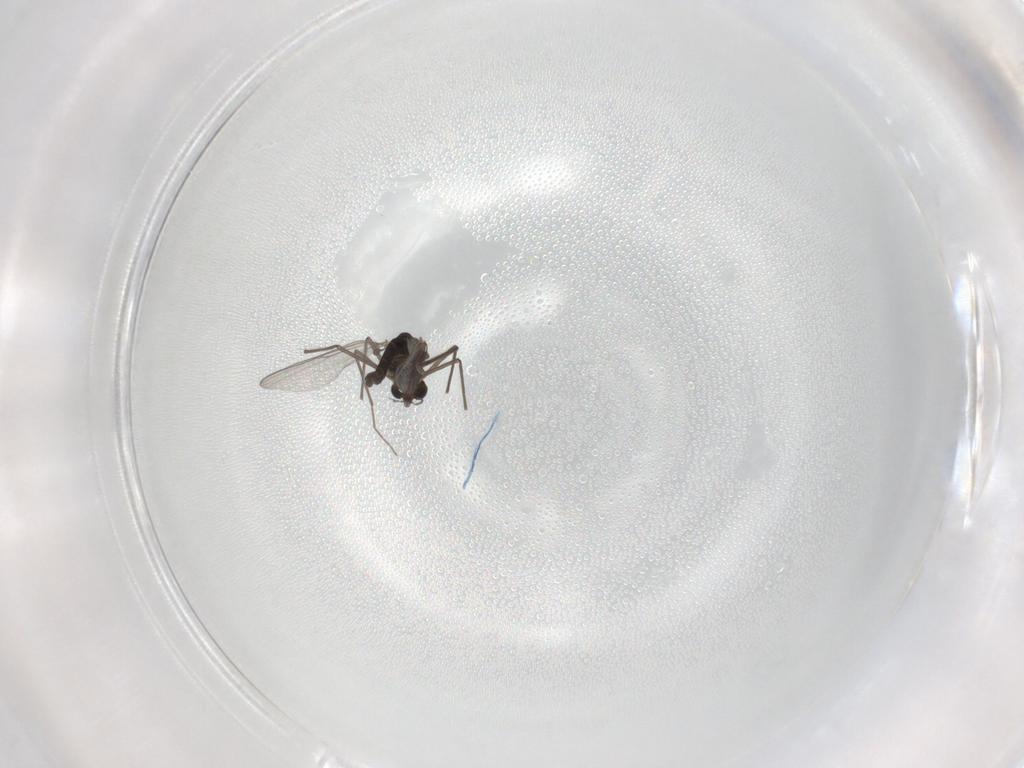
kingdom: Animalia
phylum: Arthropoda
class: Insecta
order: Diptera
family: Chironomidae
